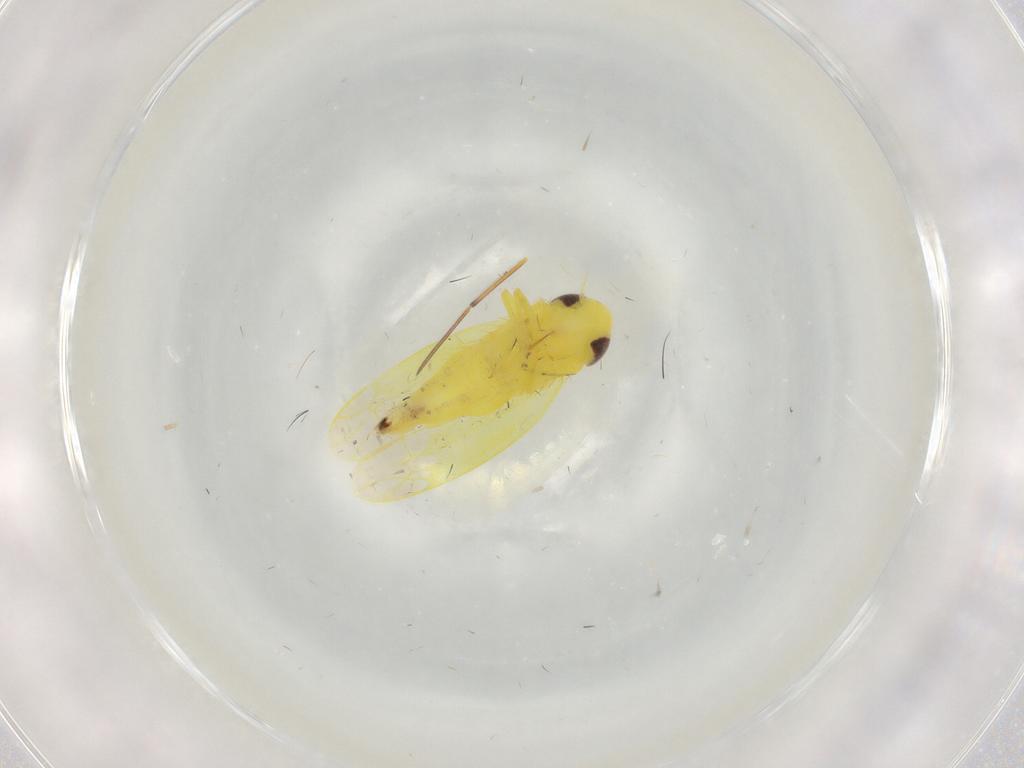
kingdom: Animalia
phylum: Arthropoda
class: Insecta
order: Hemiptera
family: Cicadellidae
